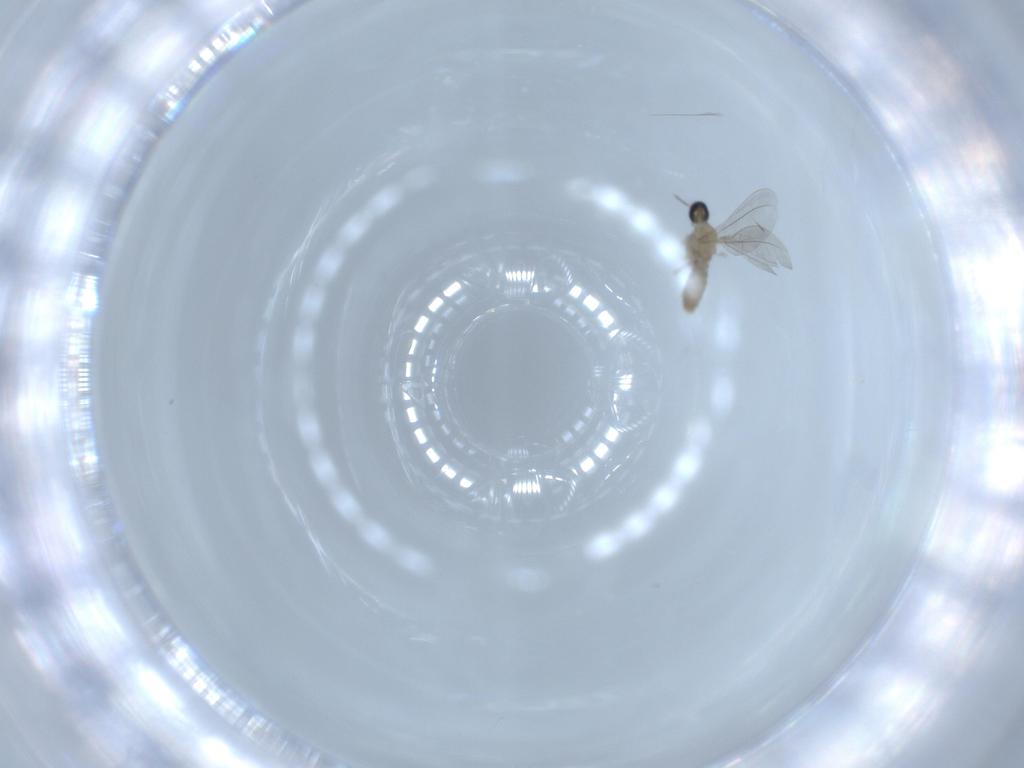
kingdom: Animalia
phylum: Arthropoda
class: Insecta
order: Diptera
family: Cecidomyiidae
